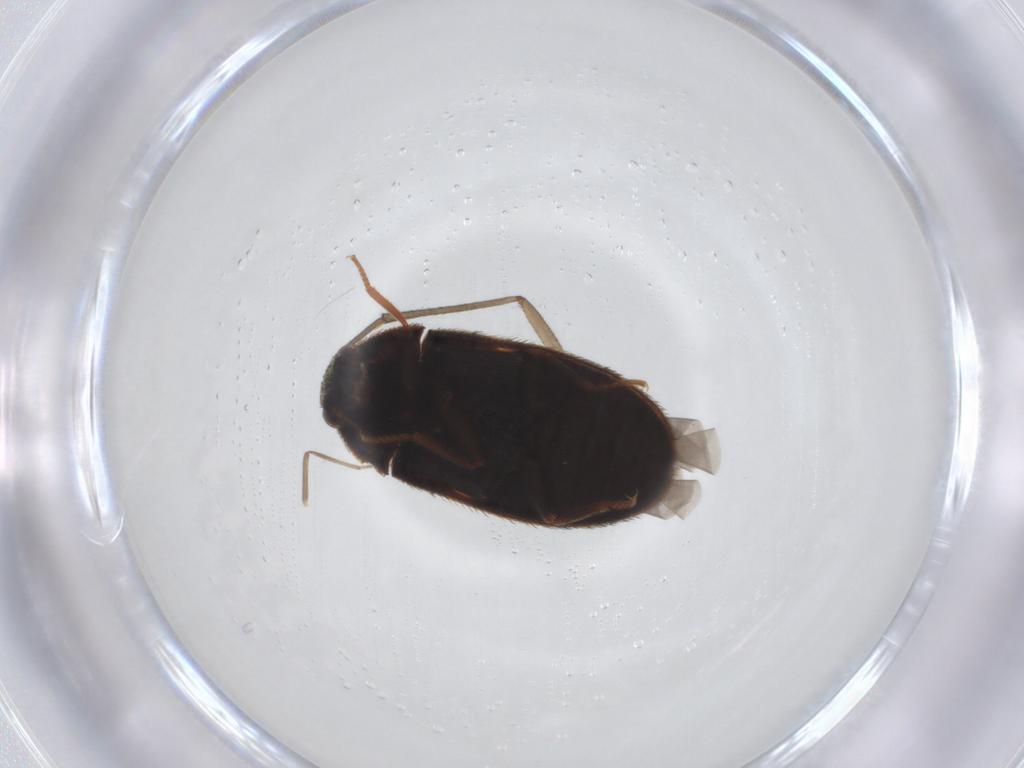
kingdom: Animalia
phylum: Arthropoda
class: Insecta
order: Coleoptera
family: Dermestidae
